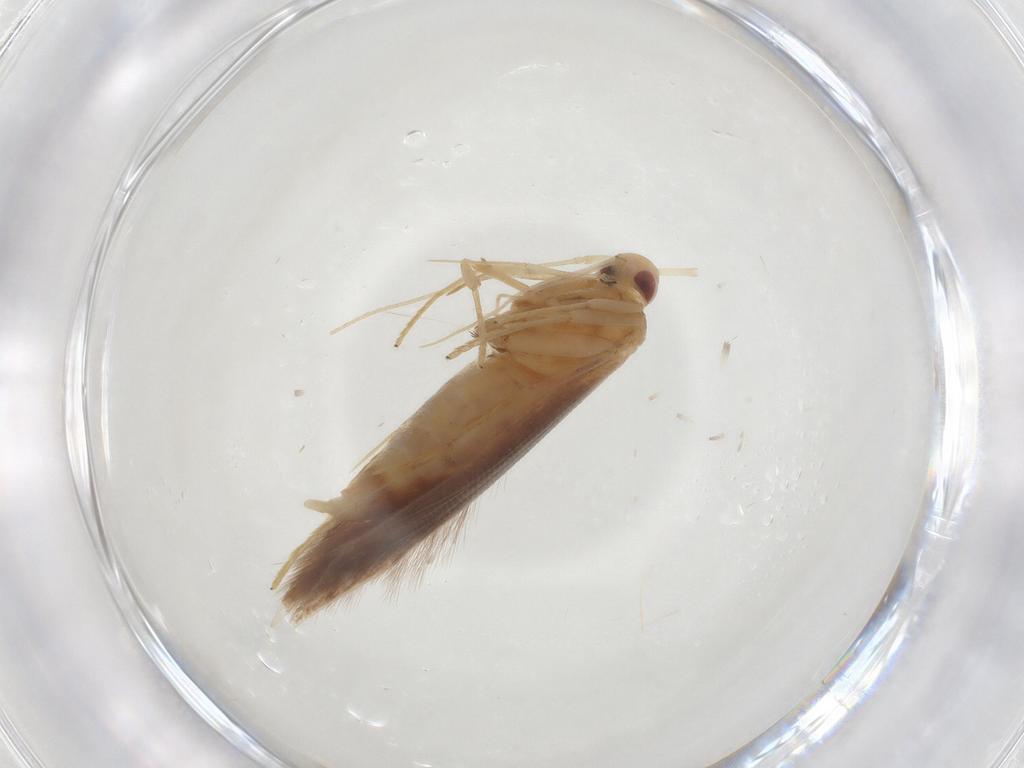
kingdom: Animalia
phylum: Arthropoda
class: Insecta
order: Lepidoptera
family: Cosmopterigidae
